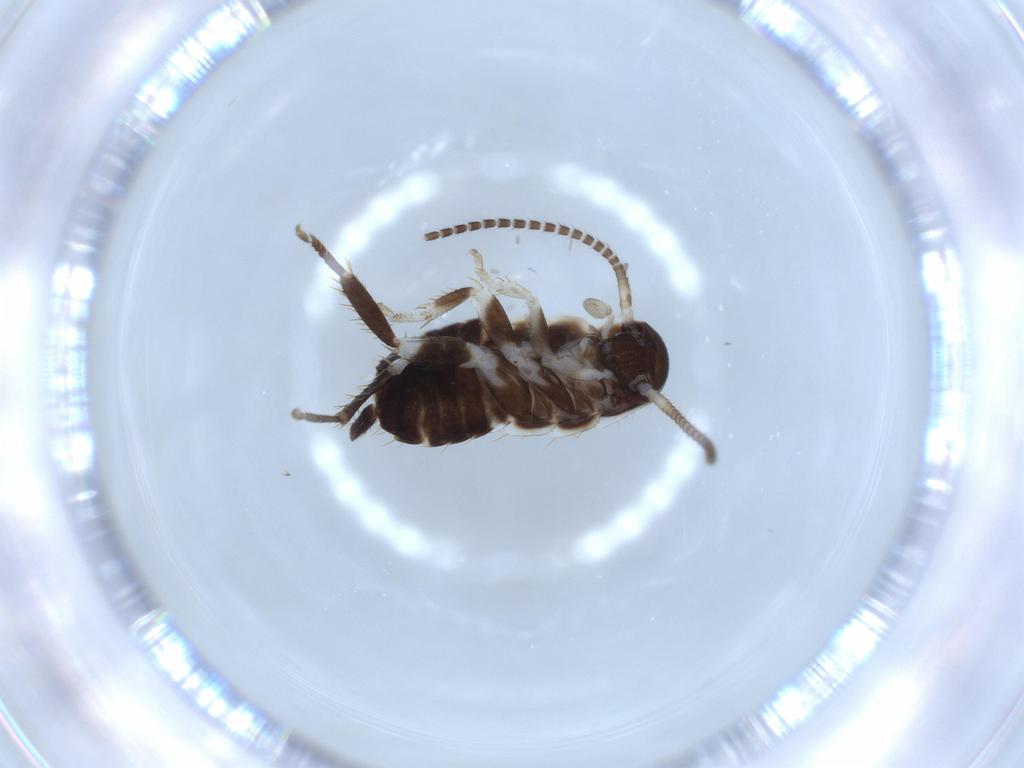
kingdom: Animalia
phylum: Arthropoda
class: Insecta
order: Blattodea
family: Ectobiidae
